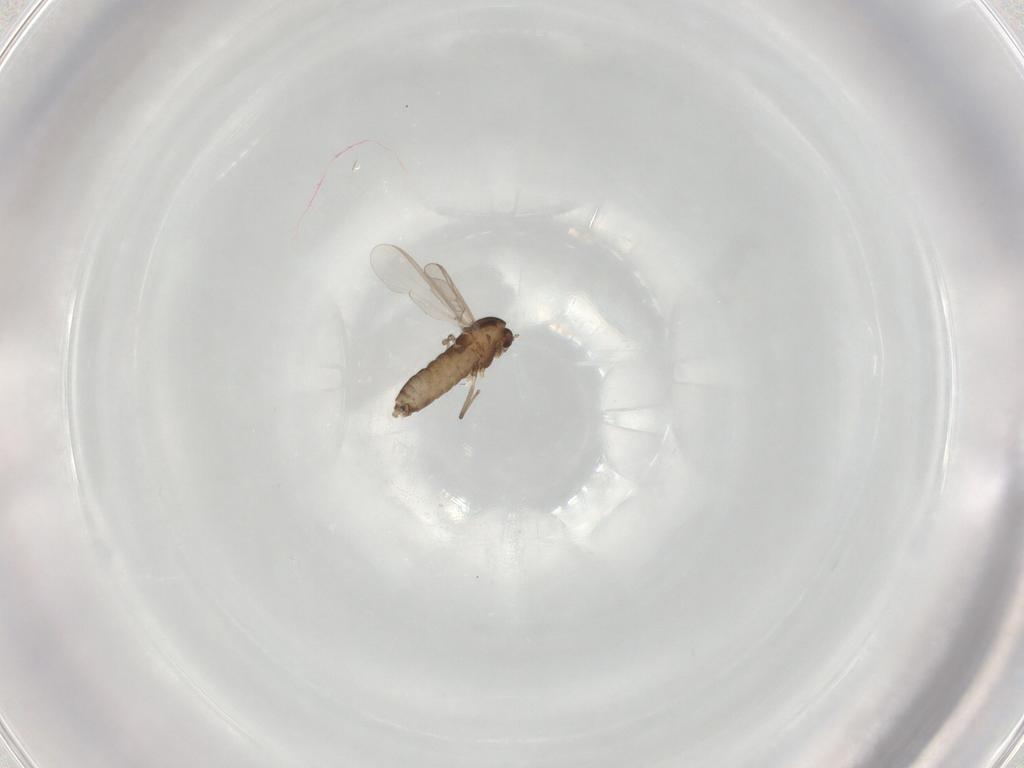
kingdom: Animalia
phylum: Arthropoda
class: Insecta
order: Diptera
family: Chironomidae
